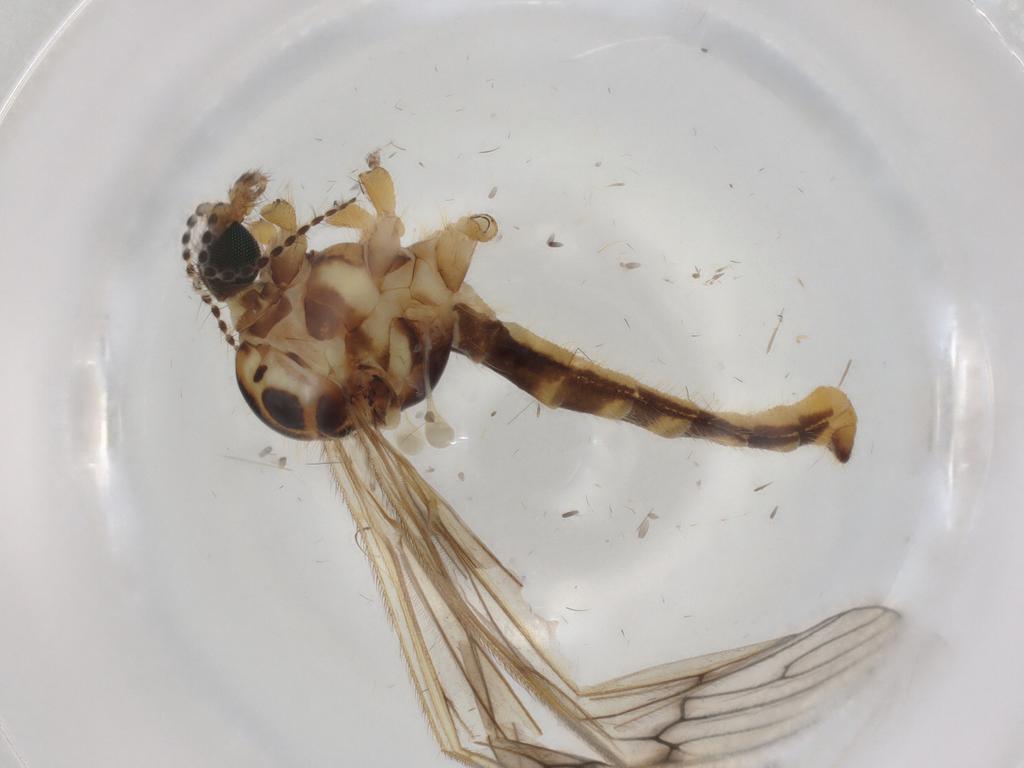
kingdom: Animalia
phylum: Arthropoda
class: Insecta
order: Diptera
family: Limoniidae
